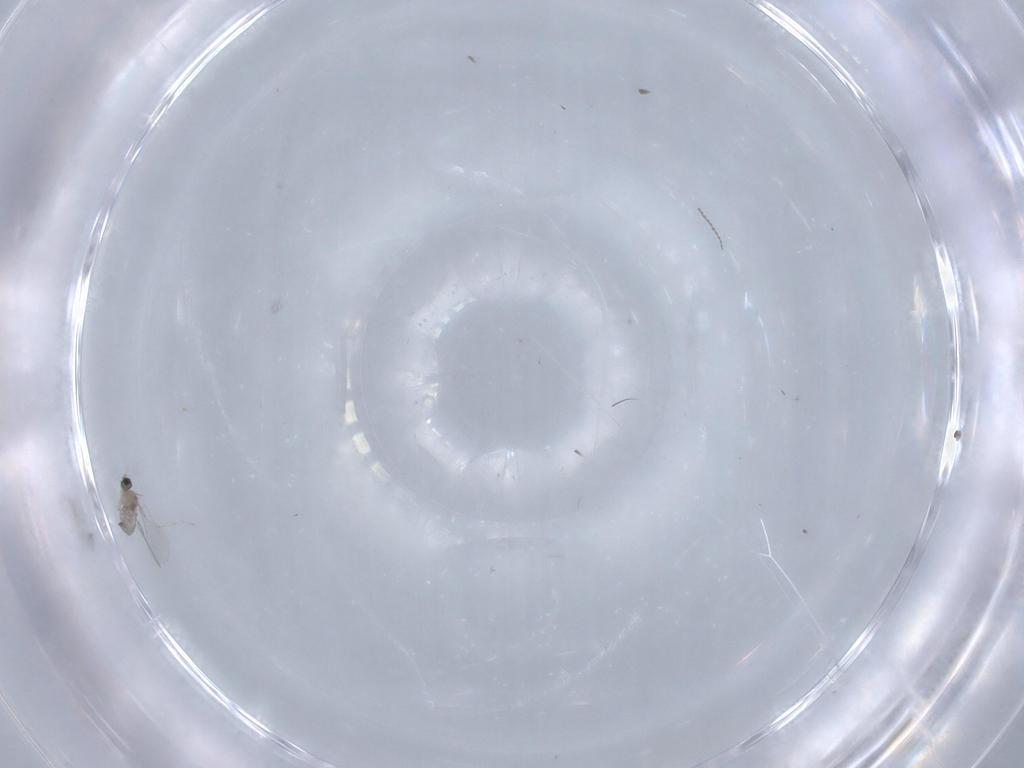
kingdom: Animalia
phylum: Arthropoda
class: Insecta
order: Diptera
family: Cecidomyiidae
